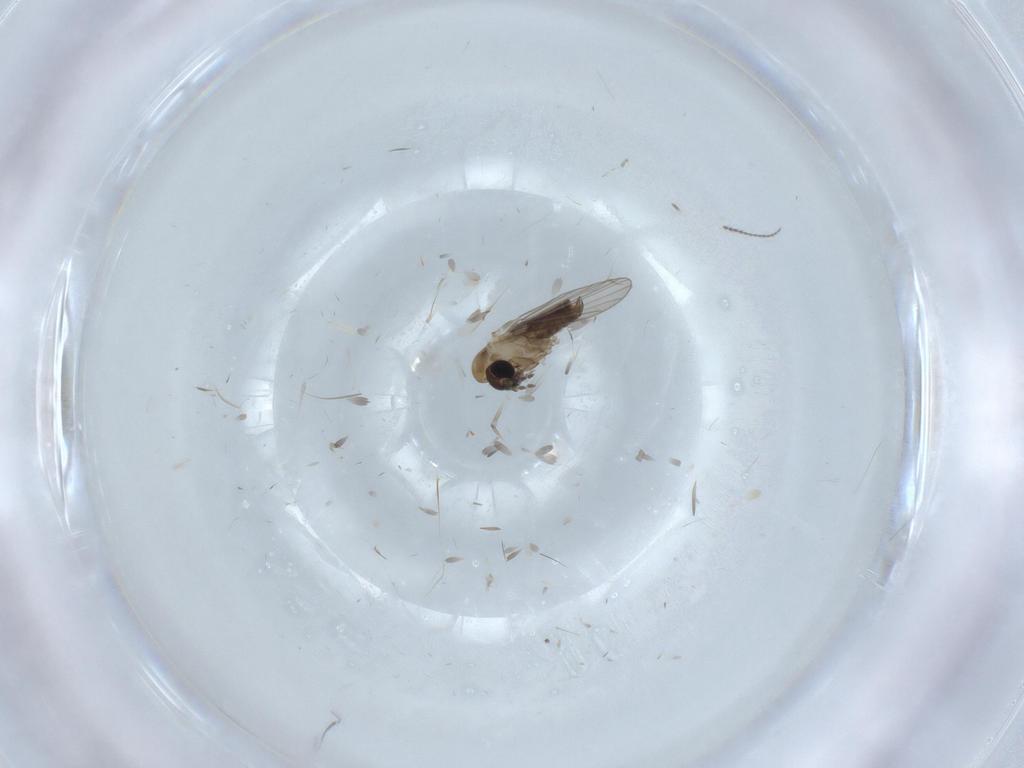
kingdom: Animalia
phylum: Arthropoda
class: Insecta
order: Diptera
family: Psychodidae
